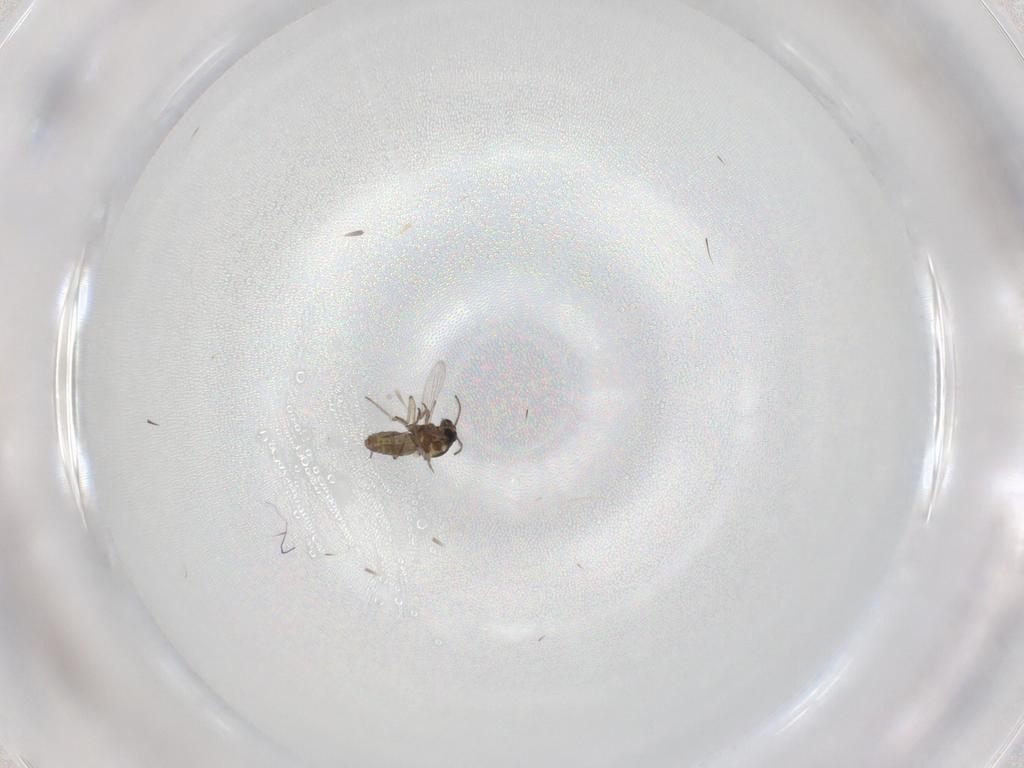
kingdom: Animalia
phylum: Arthropoda
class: Insecta
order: Diptera
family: Ceratopogonidae
